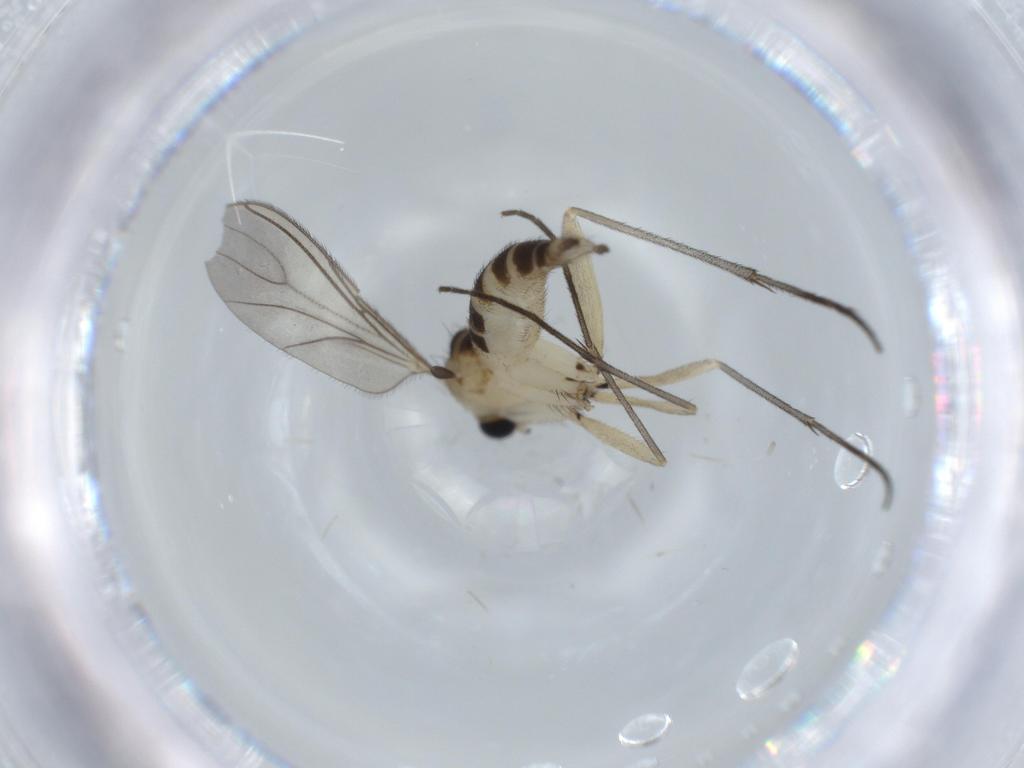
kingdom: Animalia
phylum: Arthropoda
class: Insecta
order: Diptera
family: Sciaridae
